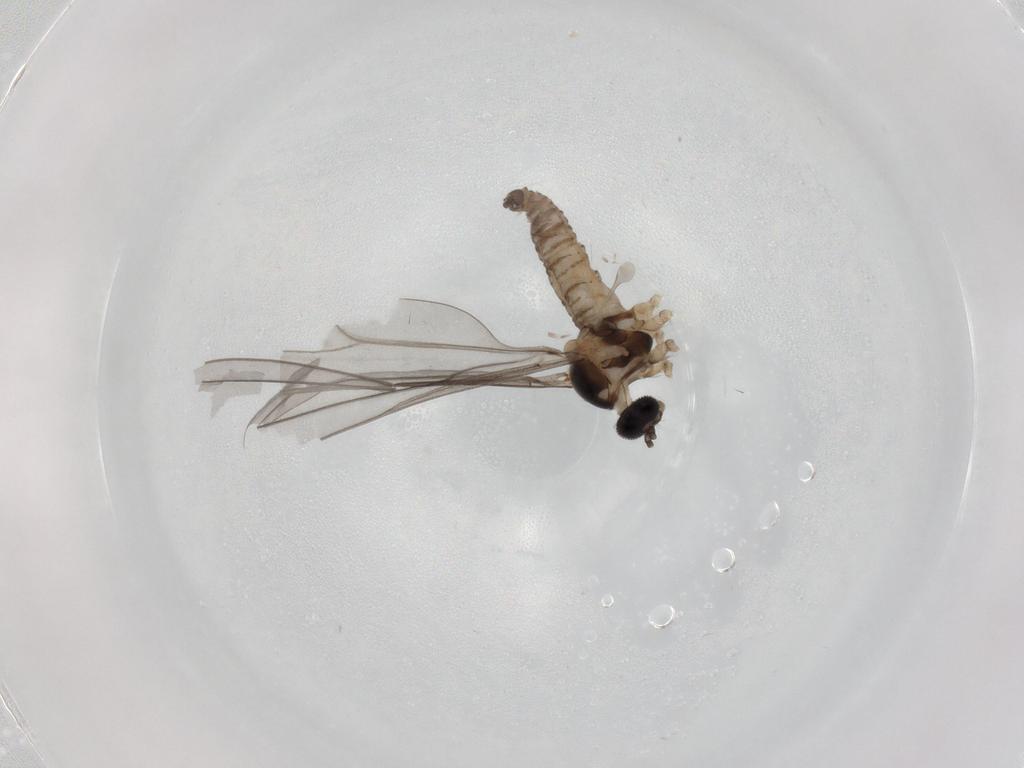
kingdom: Animalia
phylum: Arthropoda
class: Insecta
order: Diptera
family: Cecidomyiidae
